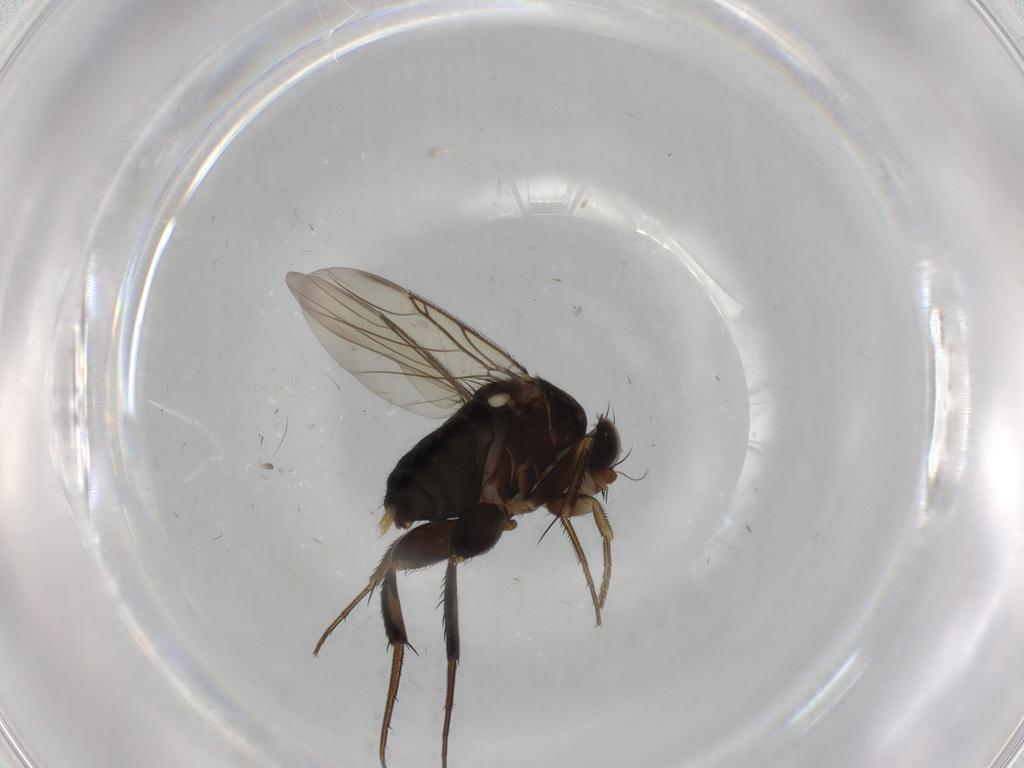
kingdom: Animalia
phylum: Arthropoda
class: Insecta
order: Diptera
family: Phoridae
